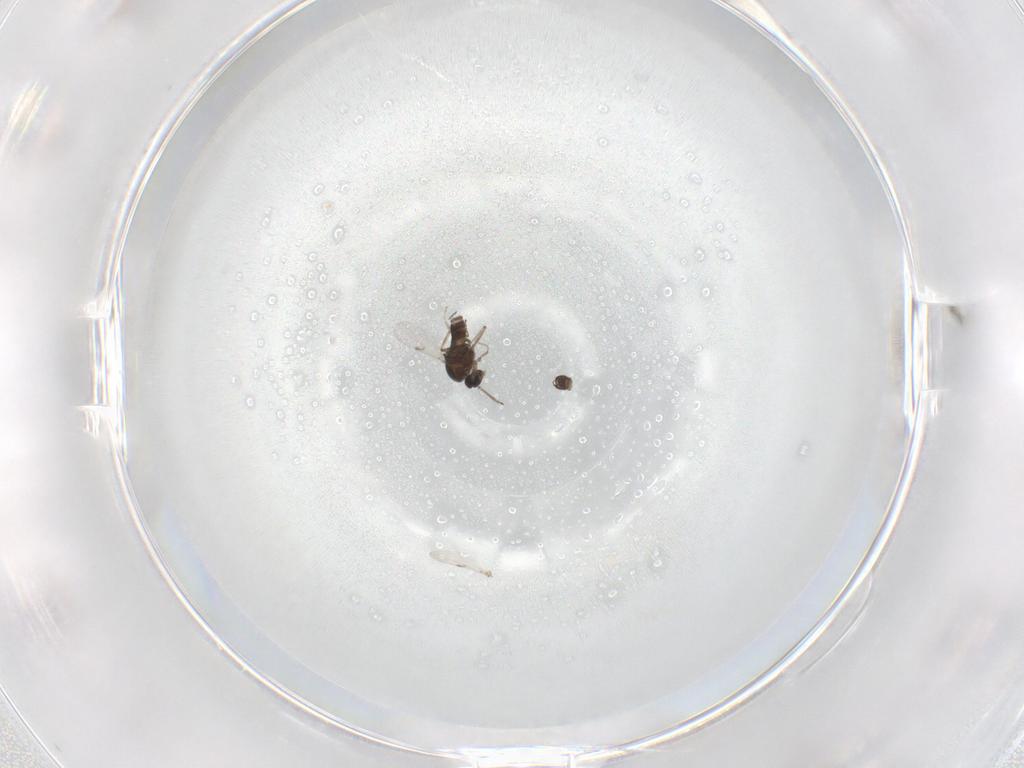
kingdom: Animalia
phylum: Arthropoda
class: Insecta
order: Diptera
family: Ceratopogonidae
